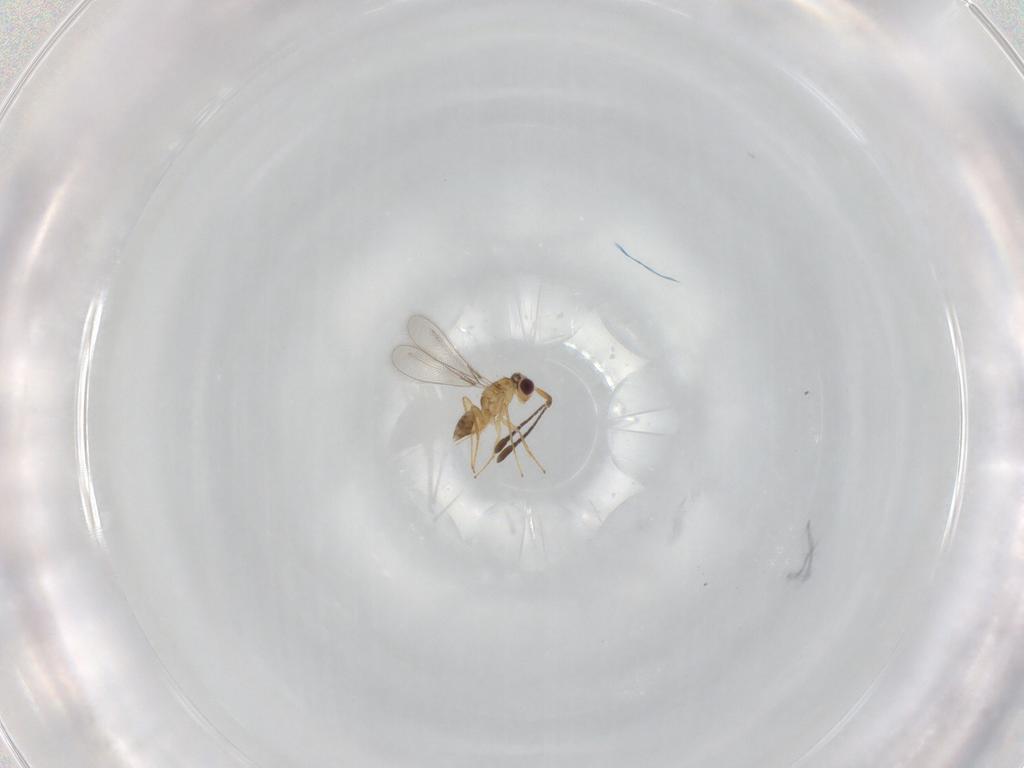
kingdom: Animalia
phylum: Arthropoda
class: Insecta
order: Hymenoptera
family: Mymaridae
